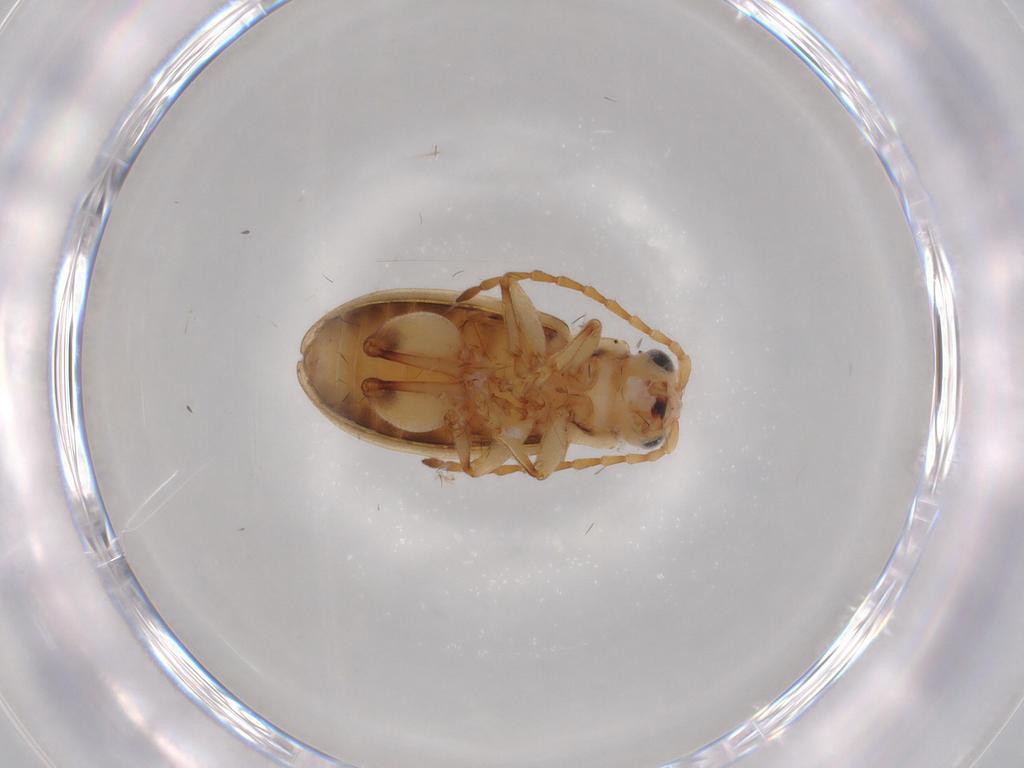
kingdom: Animalia
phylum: Arthropoda
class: Insecta
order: Coleoptera
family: Chrysomelidae
